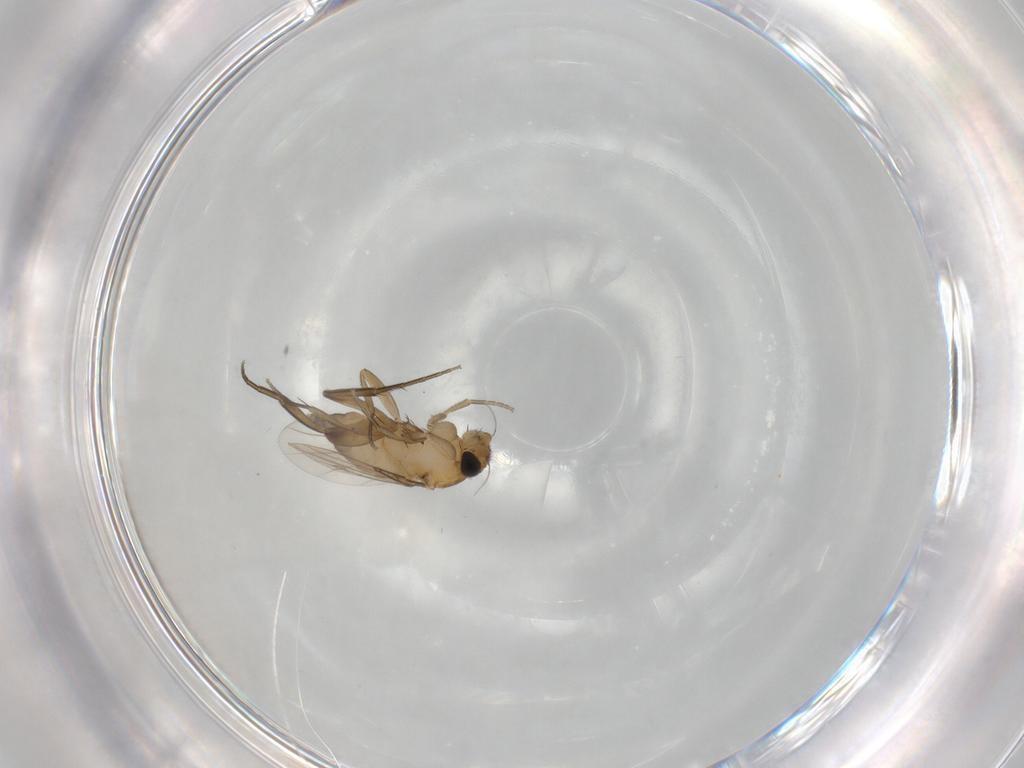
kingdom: Animalia
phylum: Arthropoda
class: Insecta
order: Diptera
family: Phoridae
